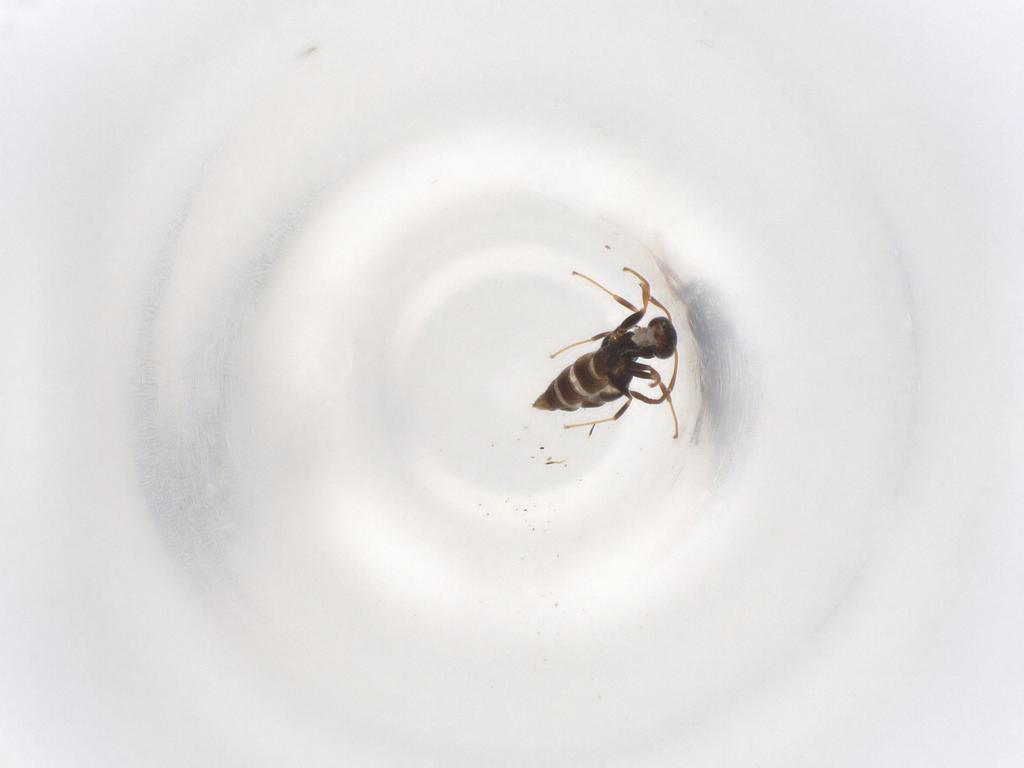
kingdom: Animalia
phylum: Arthropoda
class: Insecta
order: Hymenoptera
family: Formicidae
